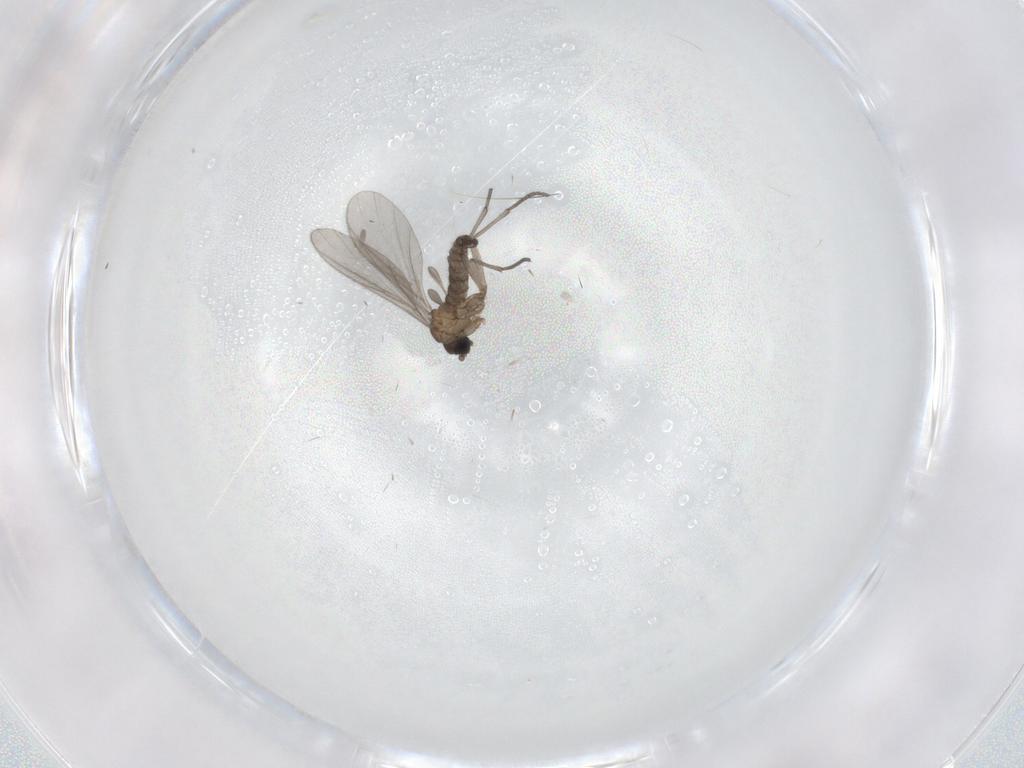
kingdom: Animalia
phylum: Arthropoda
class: Insecta
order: Diptera
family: Sciaridae
